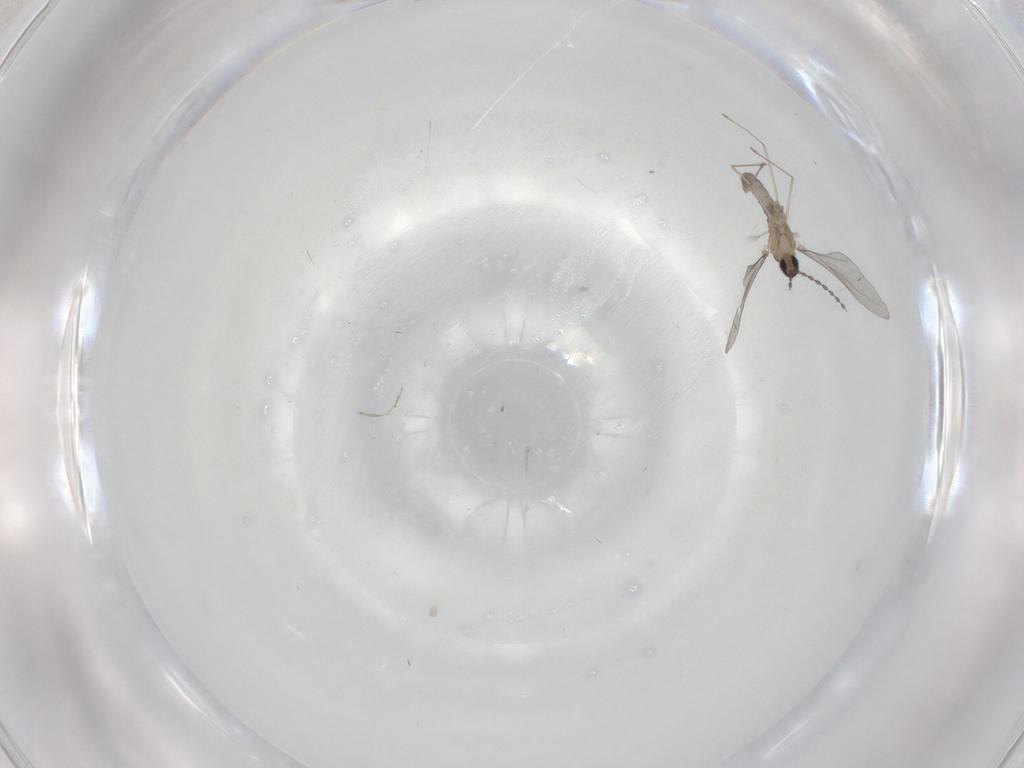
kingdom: Animalia
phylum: Arthropoda
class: Insecta
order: Diptera
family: Cecidomyiidae
